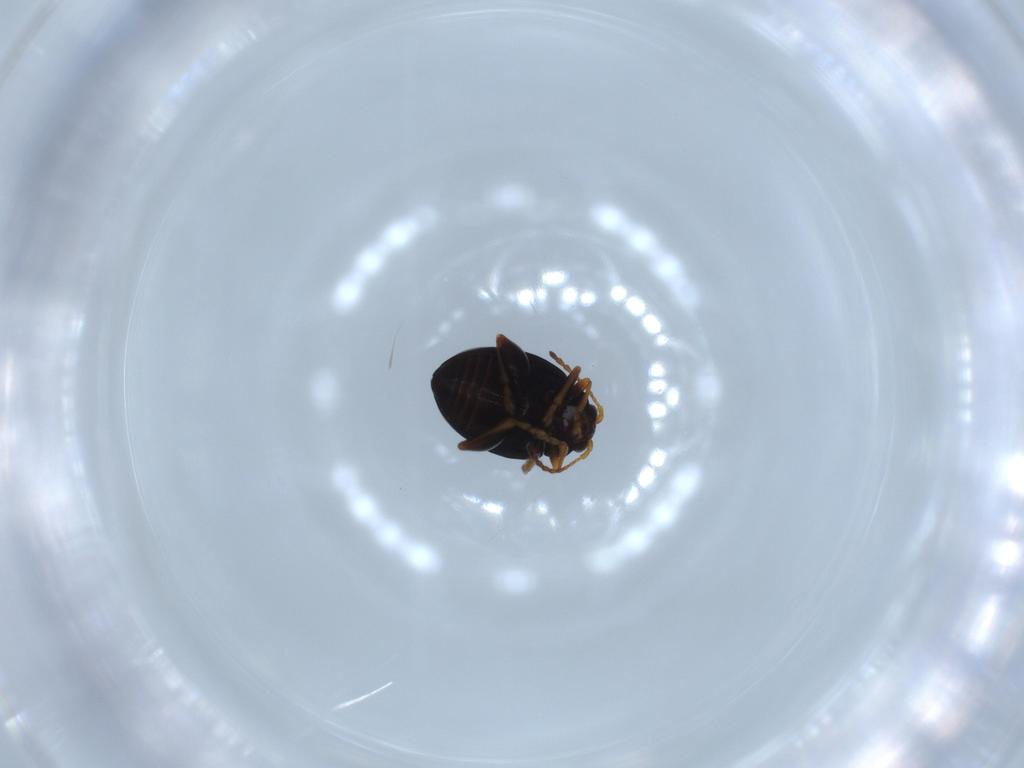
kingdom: Animalia
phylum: Arthropoda
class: Insecta
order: Coleoptera
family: Chrysomelidae
